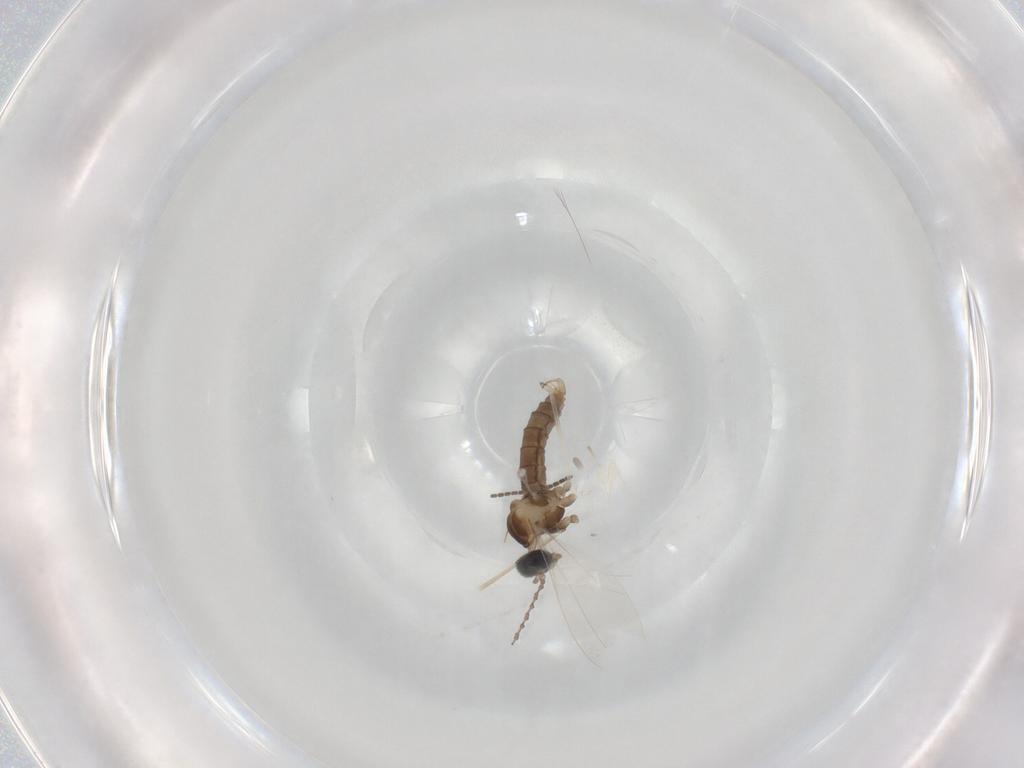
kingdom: Animalia
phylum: Arthropoda
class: Insecta
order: Diptera
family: Cecidomyiidae
